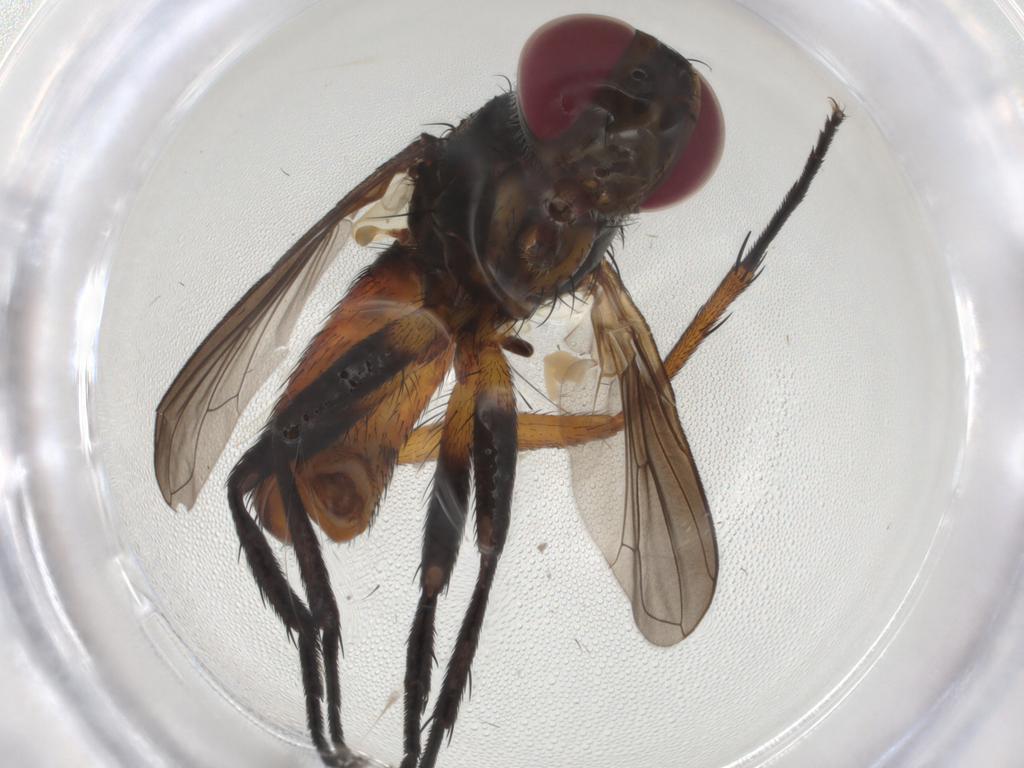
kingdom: Animalia
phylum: Arthropoda
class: Insecta
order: Diptera
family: Tachinidae
